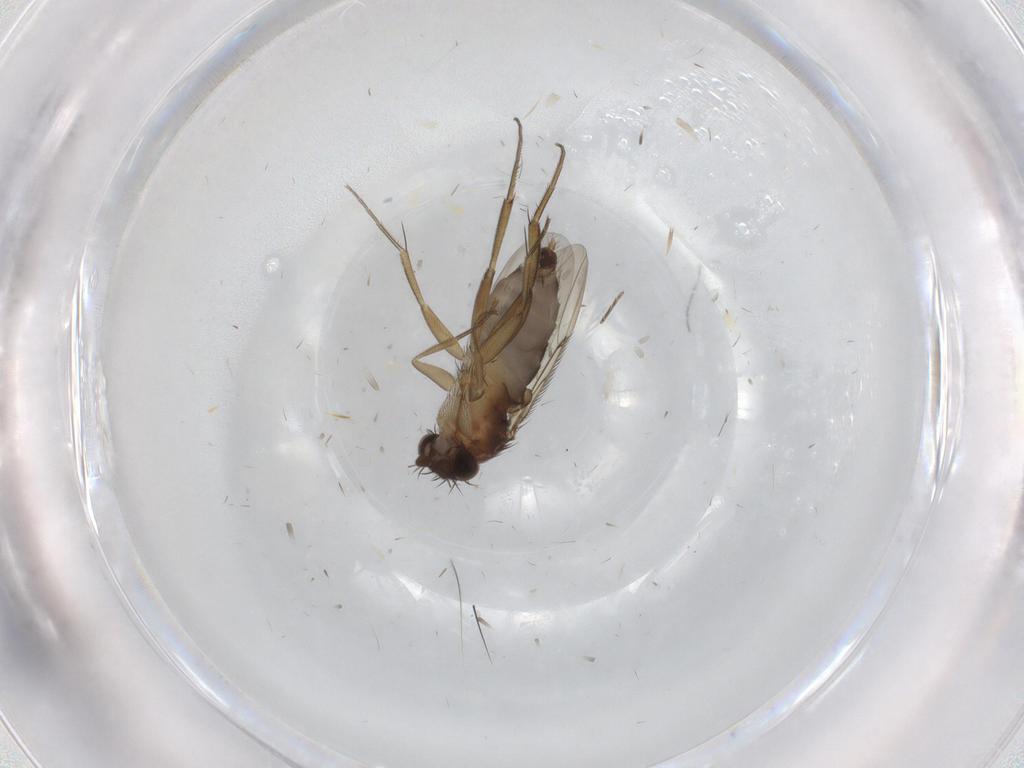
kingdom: Animalia
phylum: Arthropoda
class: Insecta
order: Diptera
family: Phoridae
